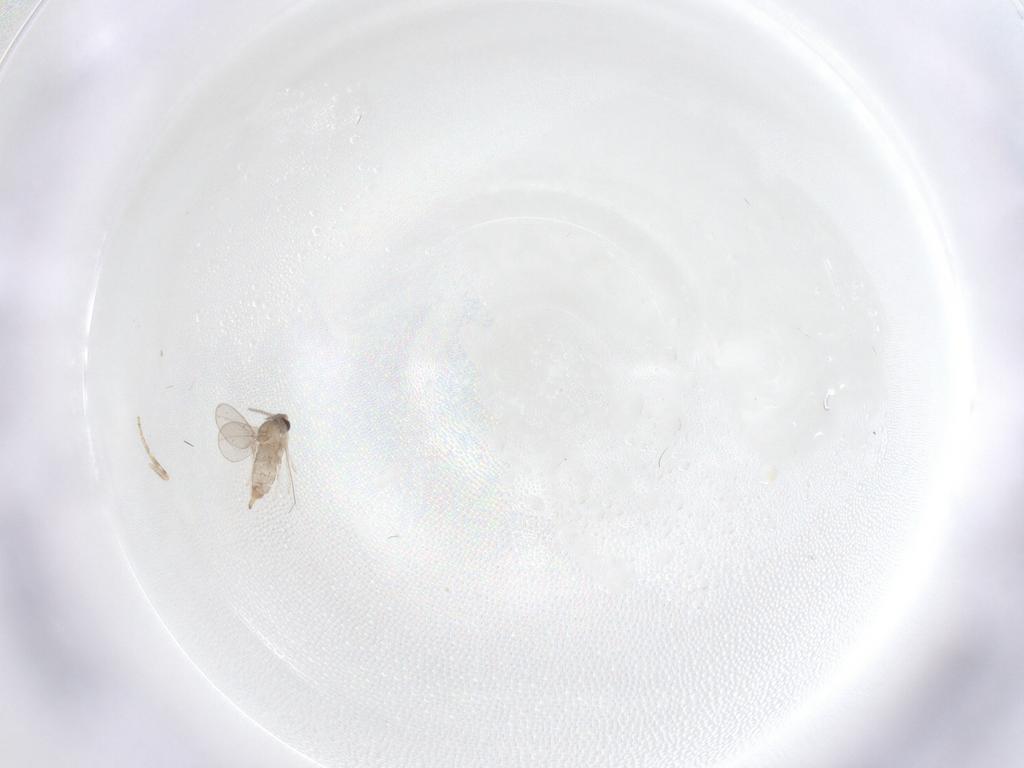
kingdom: Animalia
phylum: Arthropoda
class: Insecta
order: Diptera
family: Cecidomyiidae
